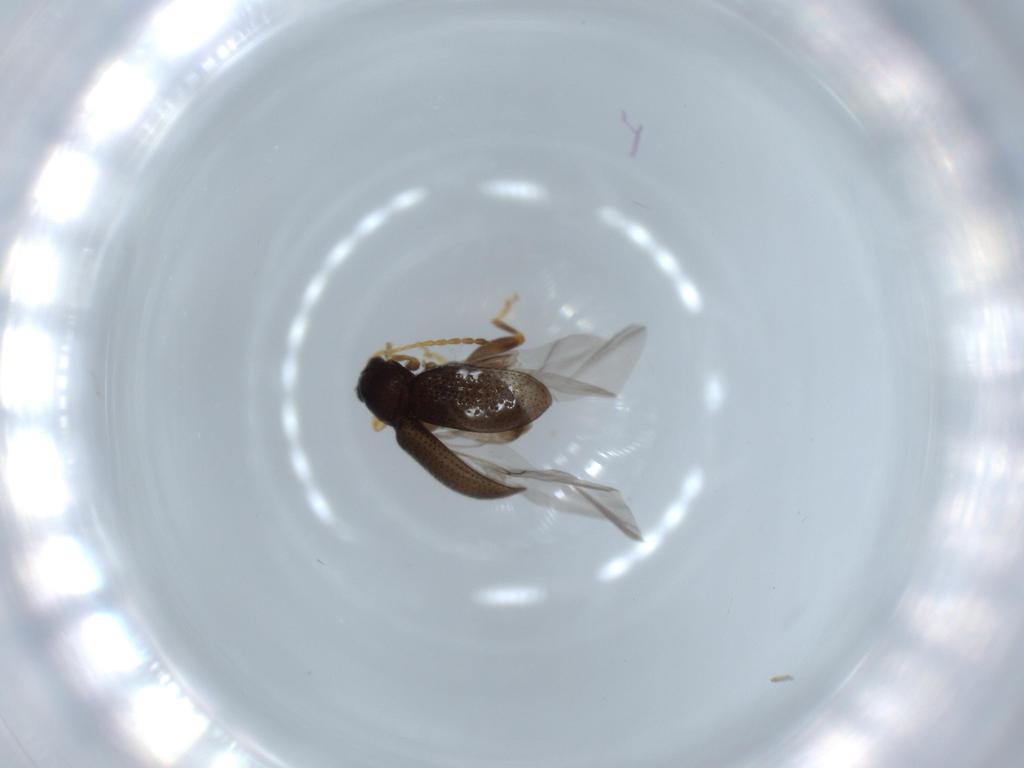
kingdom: Animalia
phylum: Arthropoda
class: Insecta
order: Coleoptera
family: Chrysomelidae
